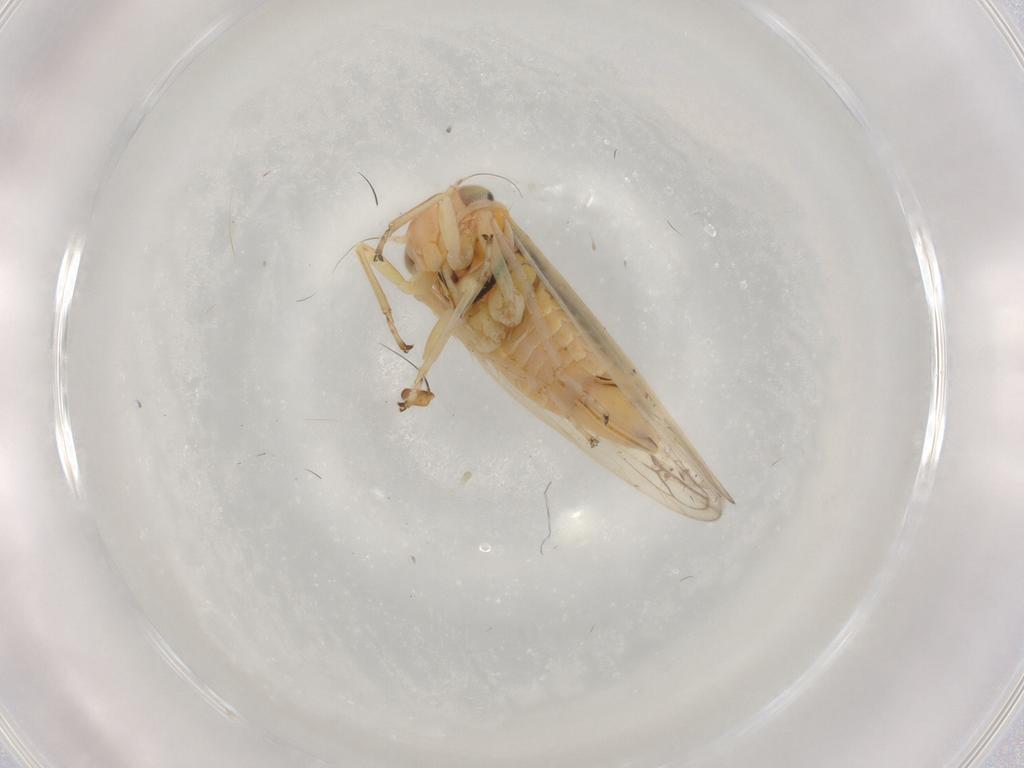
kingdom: Animalia
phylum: Arthropoda
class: Insecta
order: Hemiptera
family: Cicadellidae
